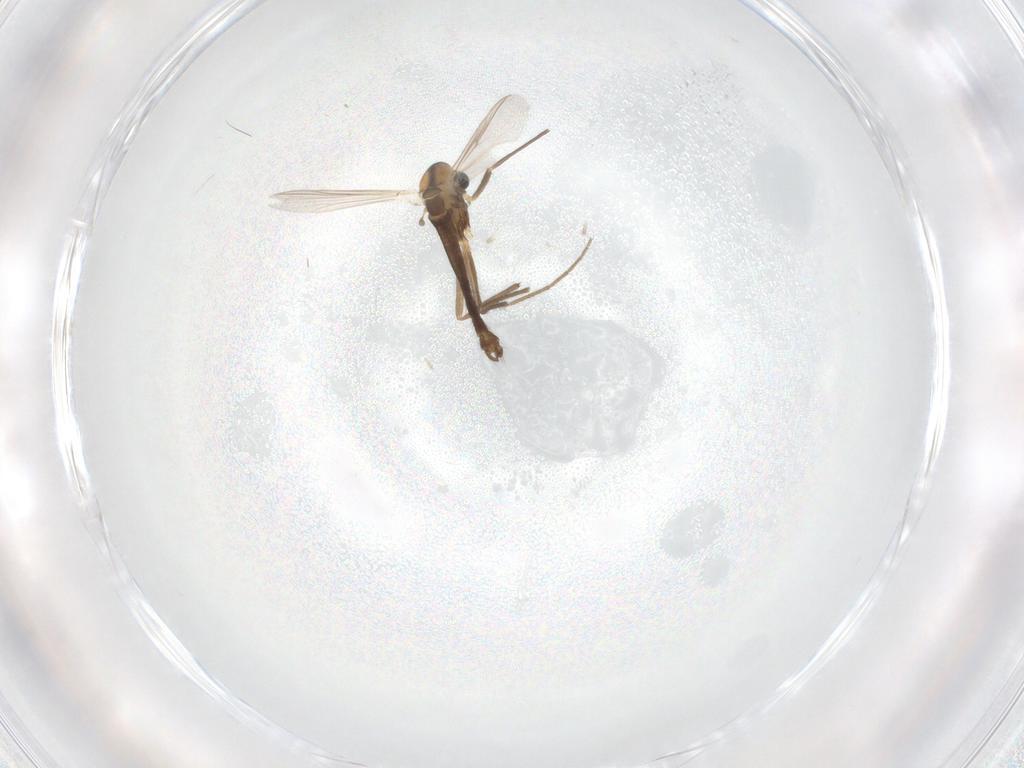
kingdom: Animalia
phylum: Arthropoda
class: Insecta
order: Diptera
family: Chironomidae
